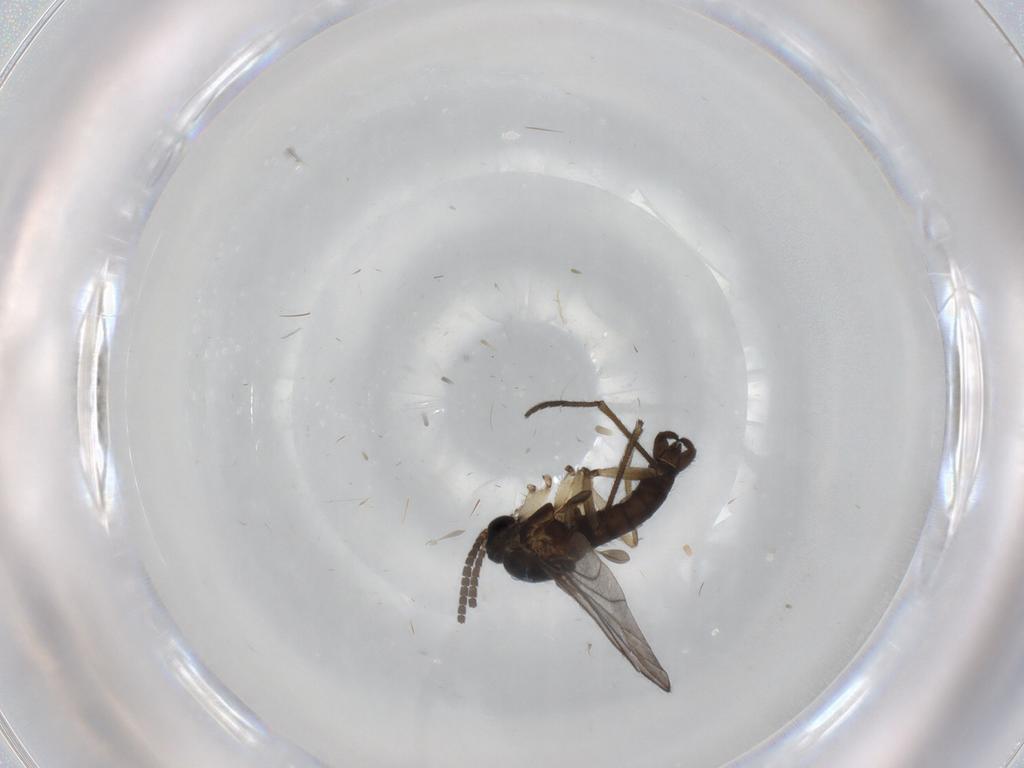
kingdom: Animalia
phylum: Arthropoda
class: Insecta
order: Diptera
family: Sciaridae
